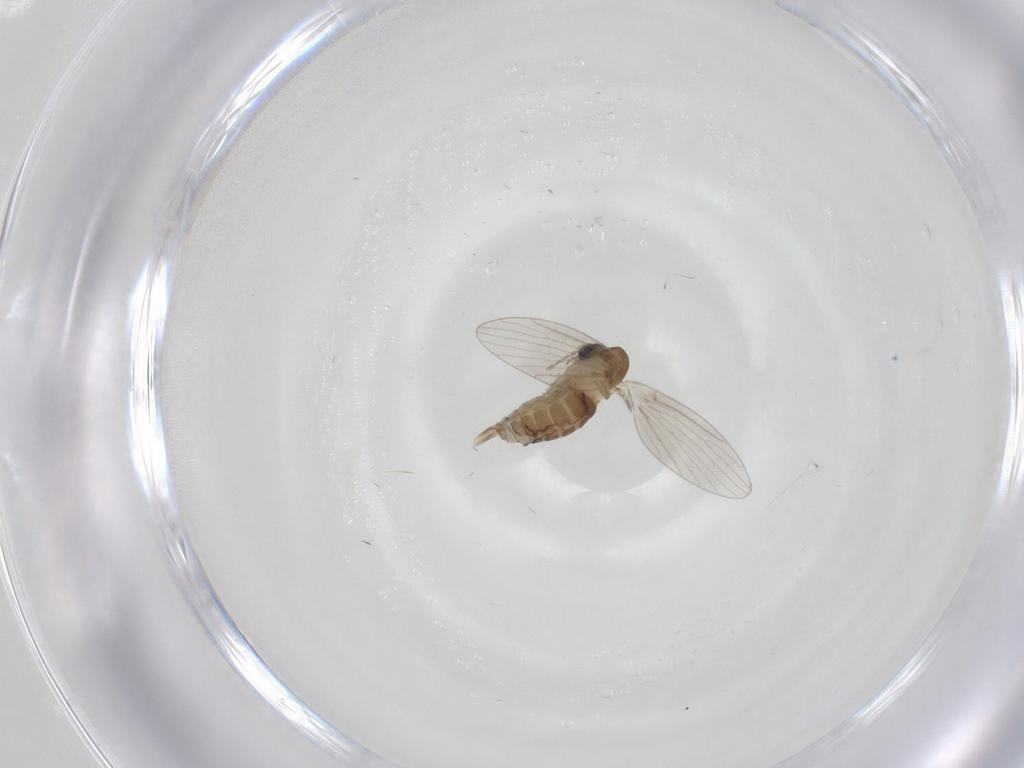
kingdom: Animalia
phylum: Arthropoda
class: Insecta
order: Diptera
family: Psychodidae
